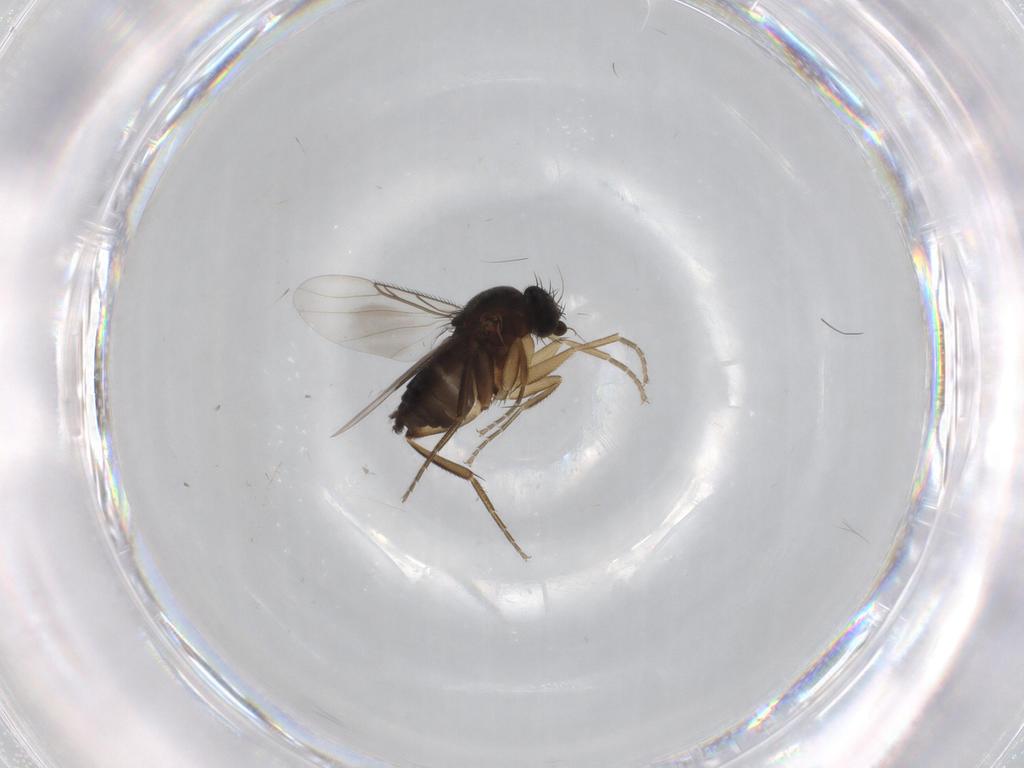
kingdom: Animalia
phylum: Arthropoda
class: Insecta
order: Diptera
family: Phoridae
